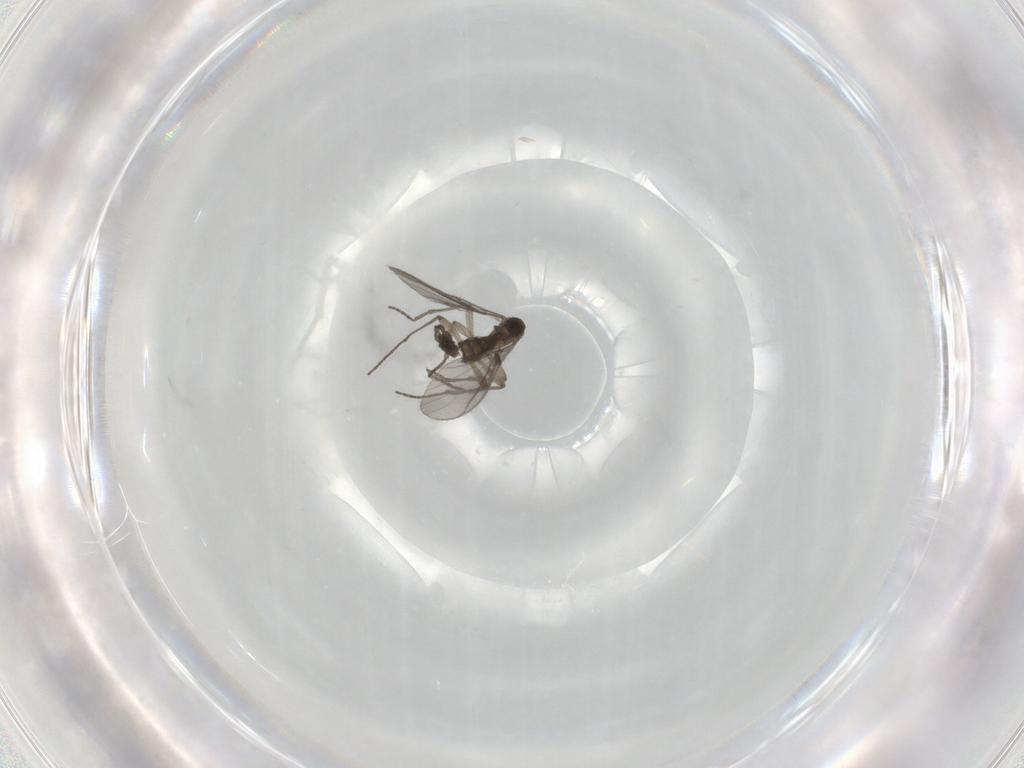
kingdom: Animalia
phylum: Arthropoda
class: Insecta
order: Diptera
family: Sciaridae
